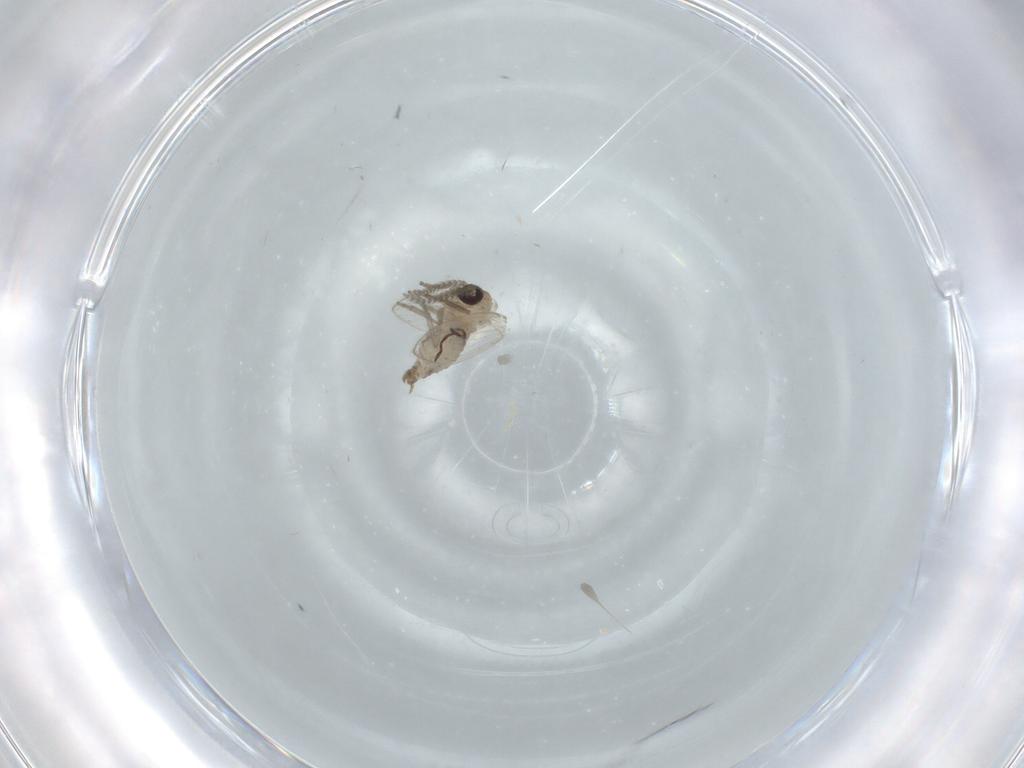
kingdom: Animalia
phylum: Arthropoda
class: Insecta
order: Diptera
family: Psychodidae
